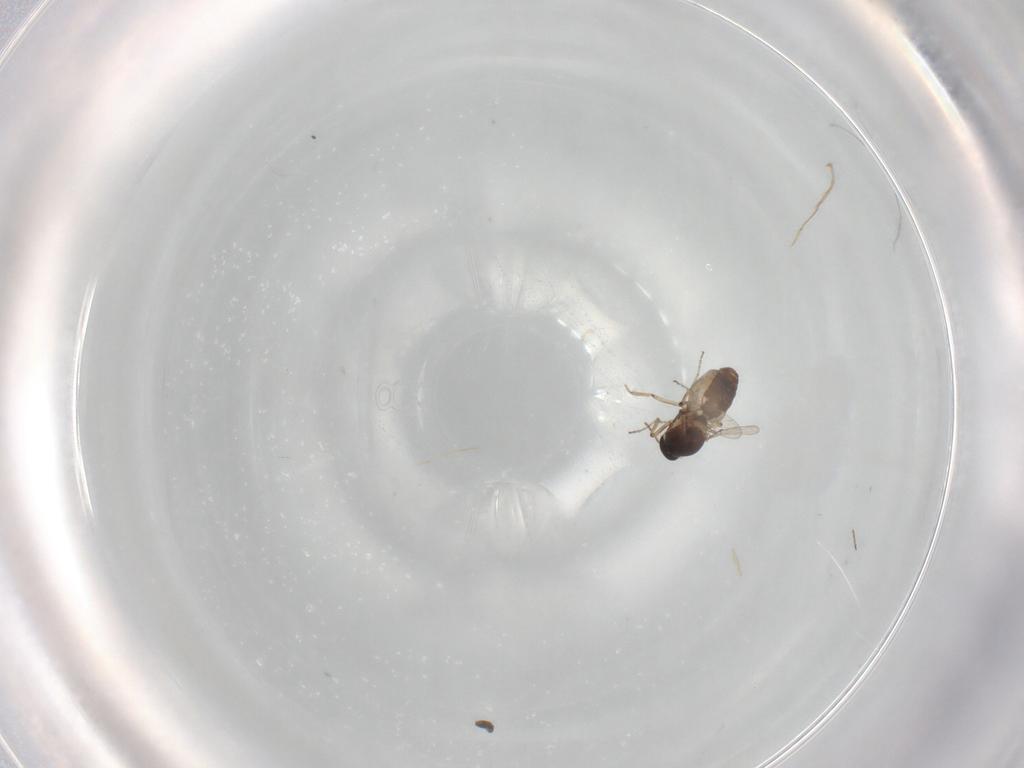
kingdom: Animalia
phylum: Arthropoda
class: Insecta
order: Diptera
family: Ceratopogonidae
